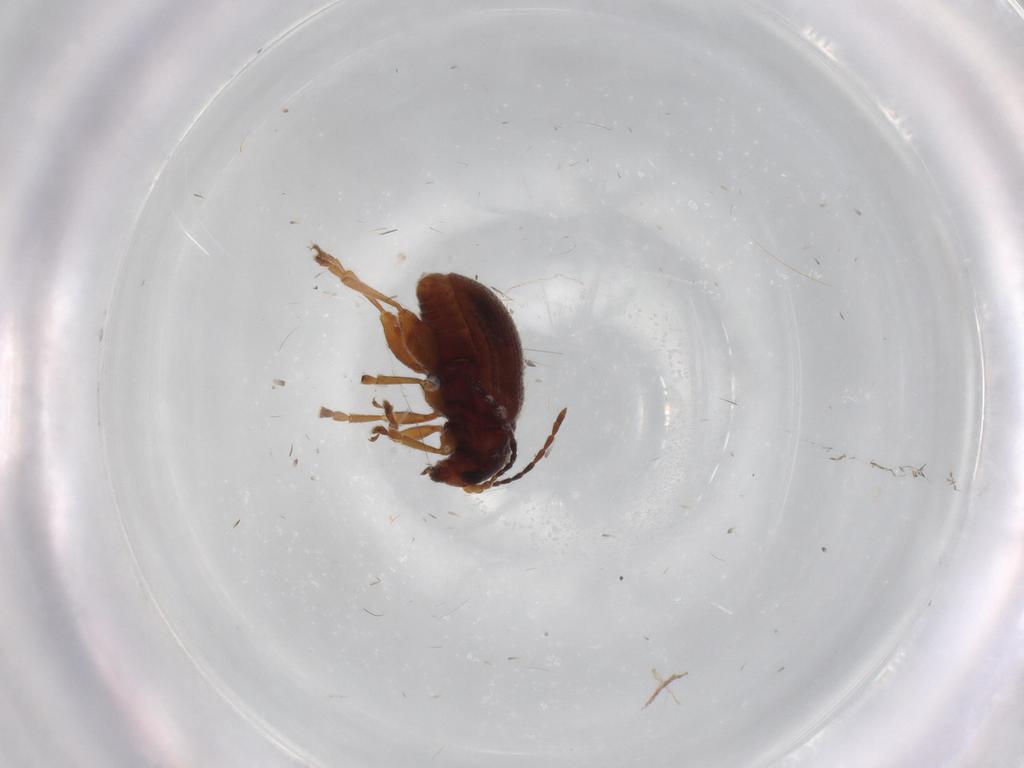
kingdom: Animalia
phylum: Arthropoda
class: Insecta
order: Coleoptera
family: Chrysomelidae
